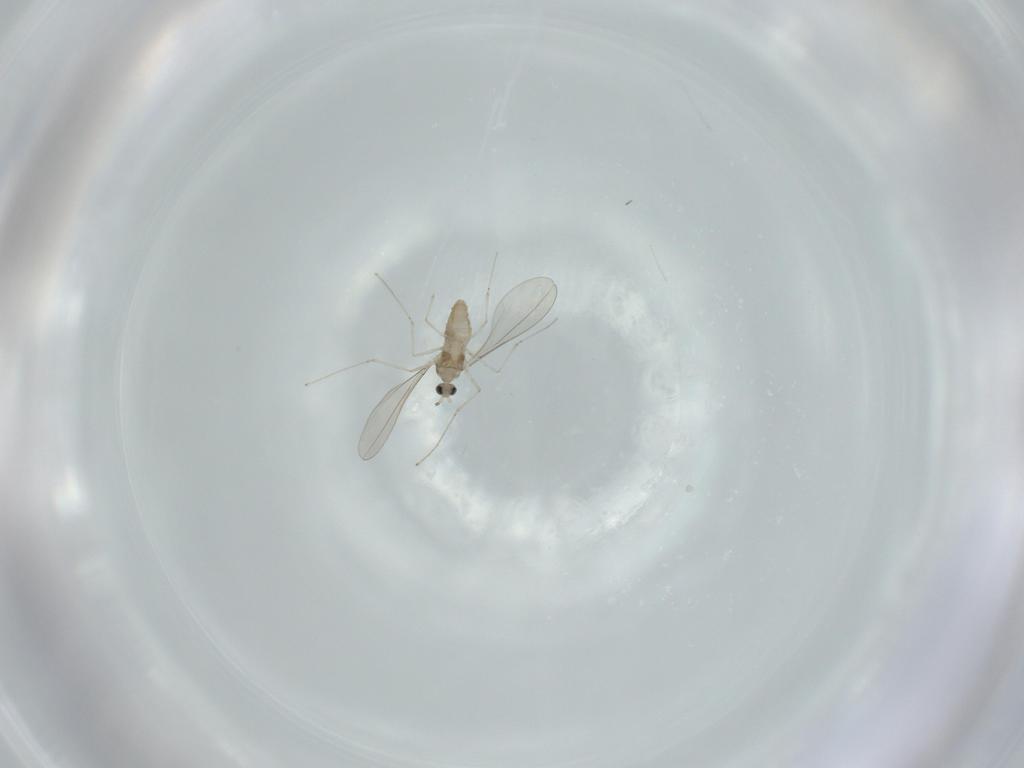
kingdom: Animalia
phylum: Arthropoda
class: Insecta
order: Diptera
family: Cecidomyiidae
